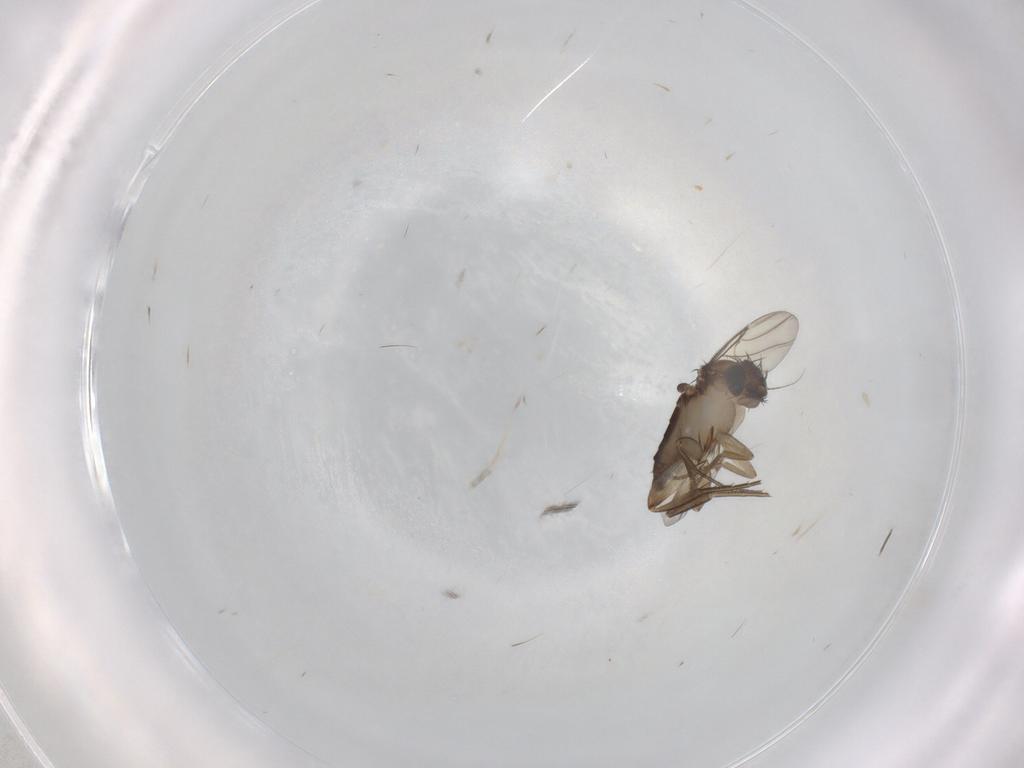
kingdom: Animalia
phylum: Arthropoda
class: Insecta
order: Diptera
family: Phoridae
